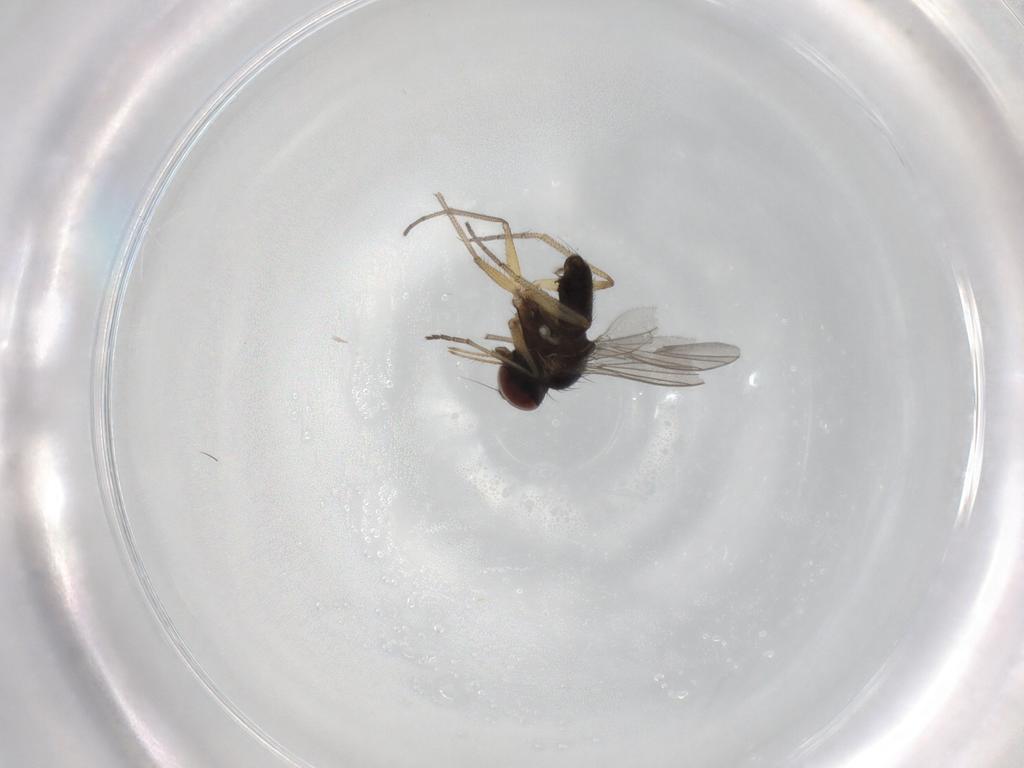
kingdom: Animalia
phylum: Arthropoda
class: Insecta
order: Diptera
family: Dolichopodidae
